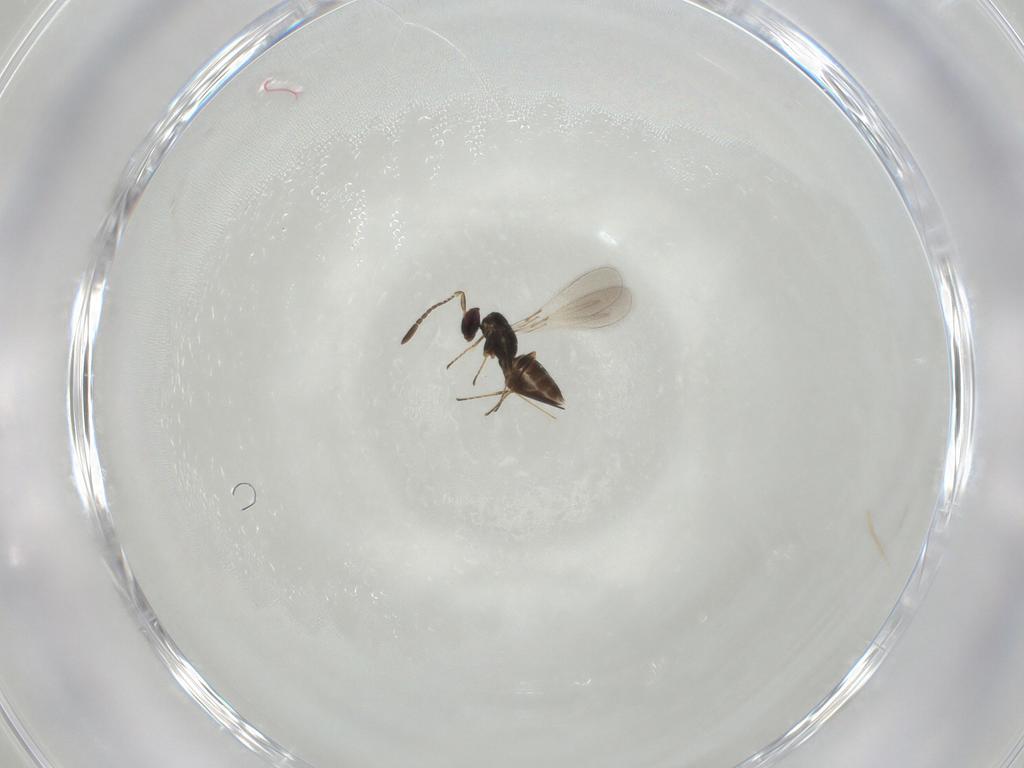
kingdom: Animalia
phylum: Arthropoda
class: Insecta
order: Hymenoptera
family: Mymaridae
